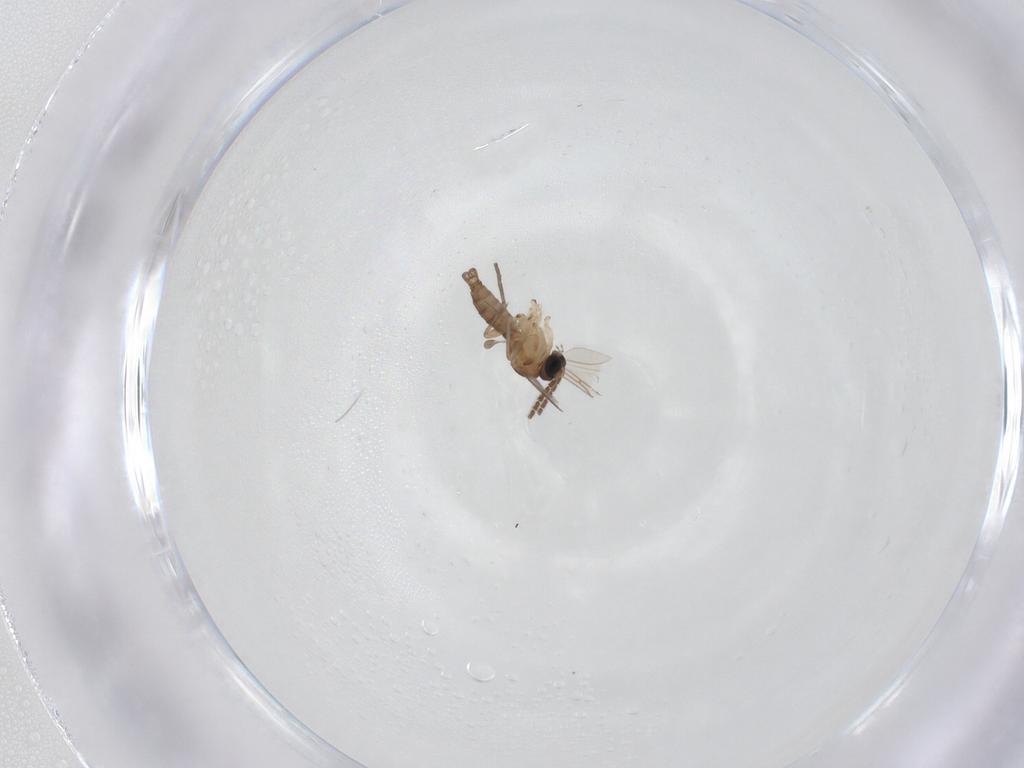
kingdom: Animalia
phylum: Arthropoda
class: Insecta
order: Diptera
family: Sciaridae
